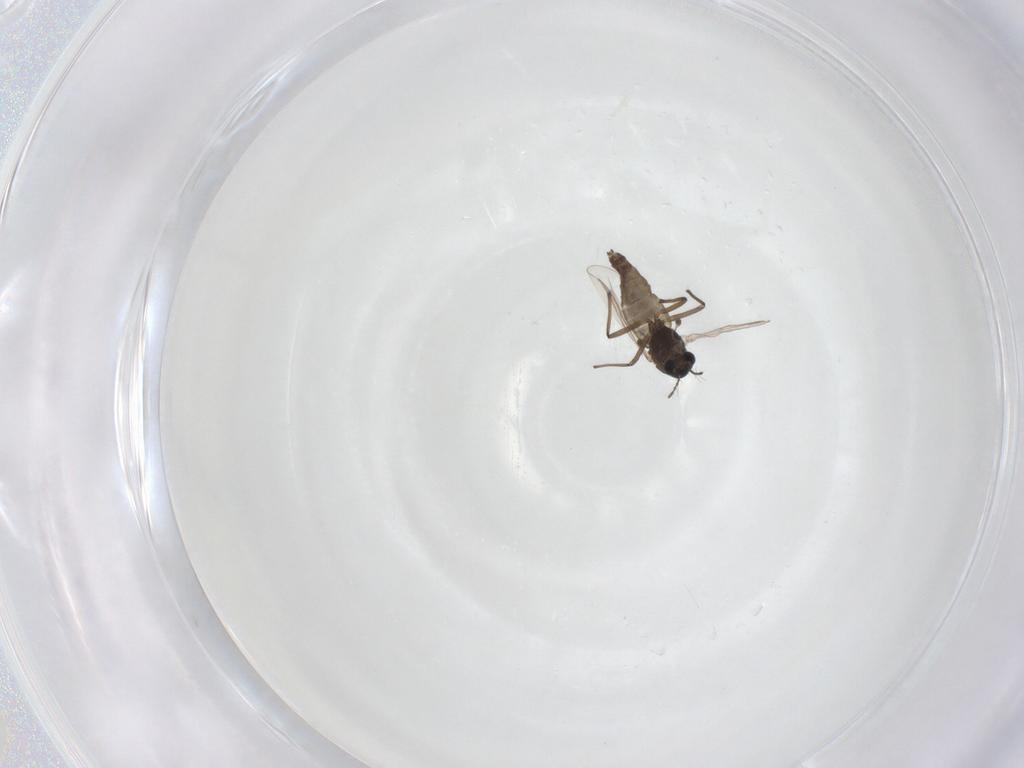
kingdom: Animalia
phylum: Arthropoda
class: Insecta
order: Diptera
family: Chironomidae
